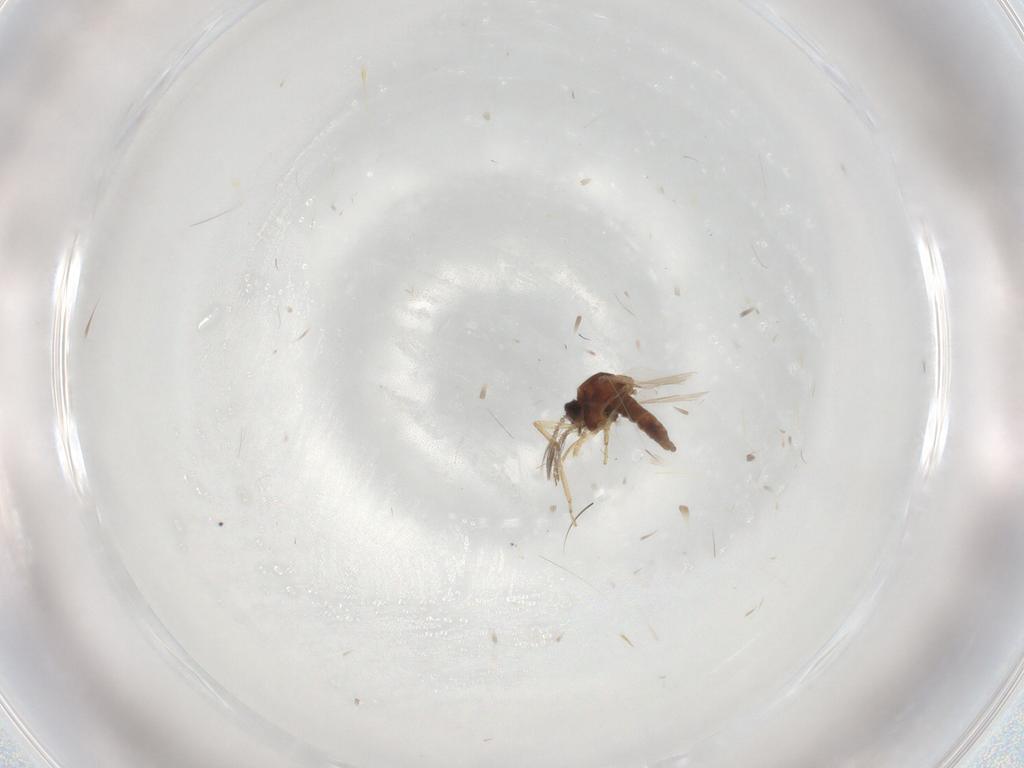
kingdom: Animalia
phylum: Arthropoda
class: Insecta
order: Diptera
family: Ceratopogonidae
